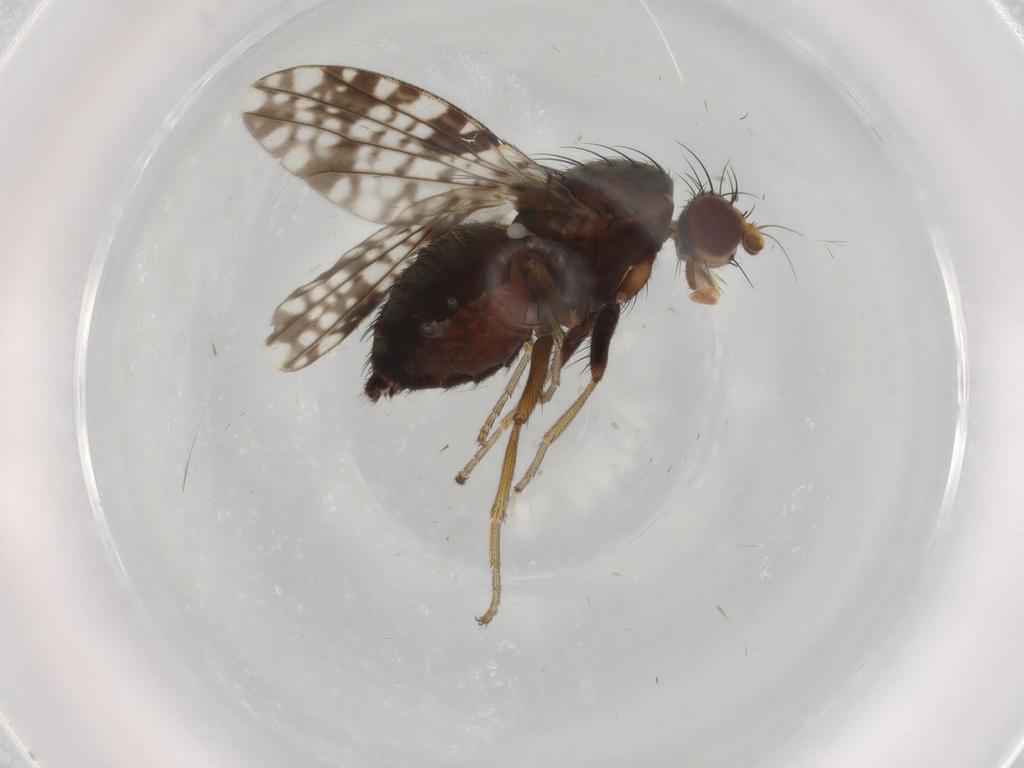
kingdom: Animalia
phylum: Arthropoda
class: Insecta
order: Diptera
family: Tephritidae
